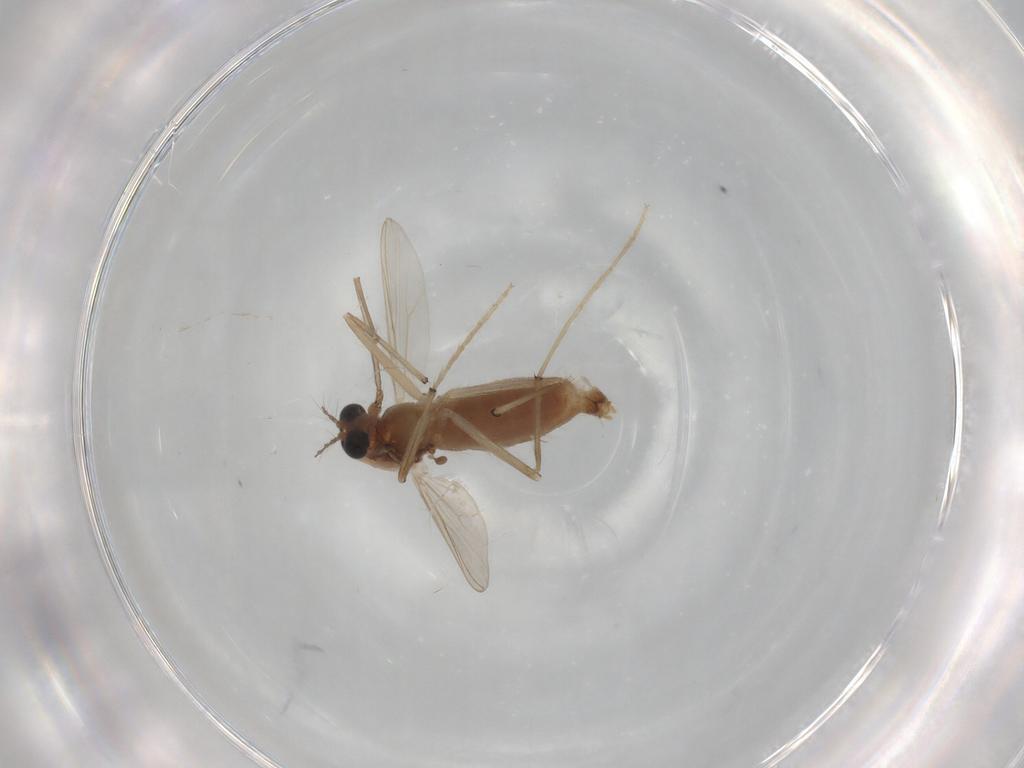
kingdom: Animalia
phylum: Arthropoda
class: Insecta
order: Diptera
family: Chironomidae
